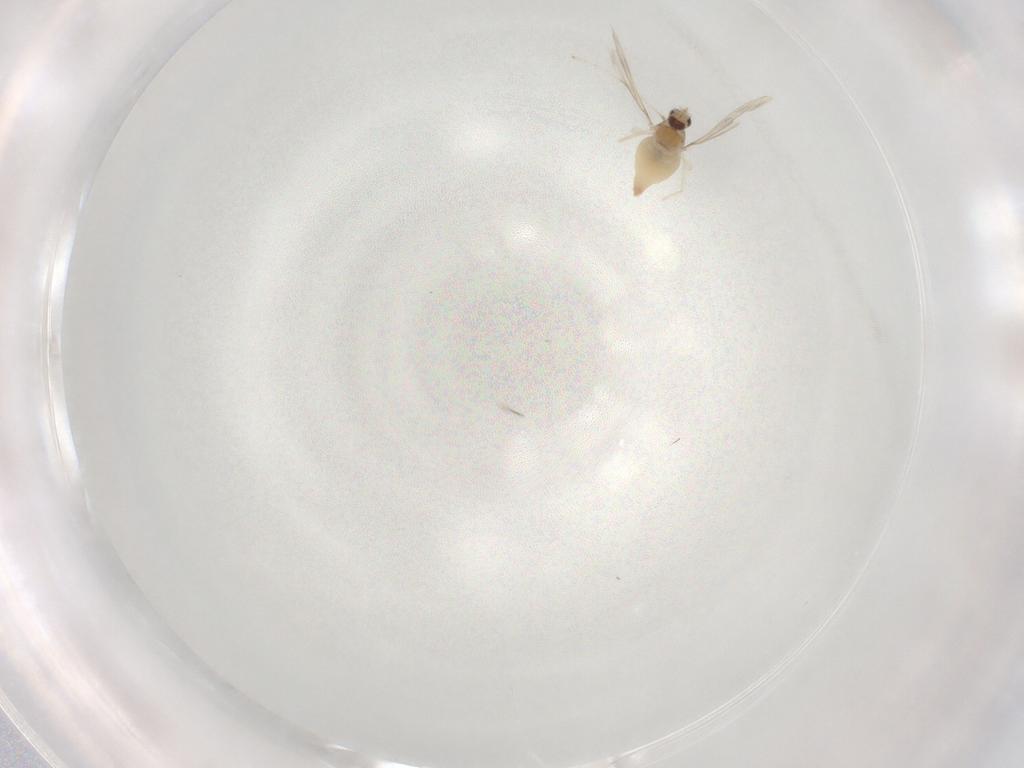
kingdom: Animalia
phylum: Arthropoda
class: Insecta
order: Diptera
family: Cecidomyiidae
